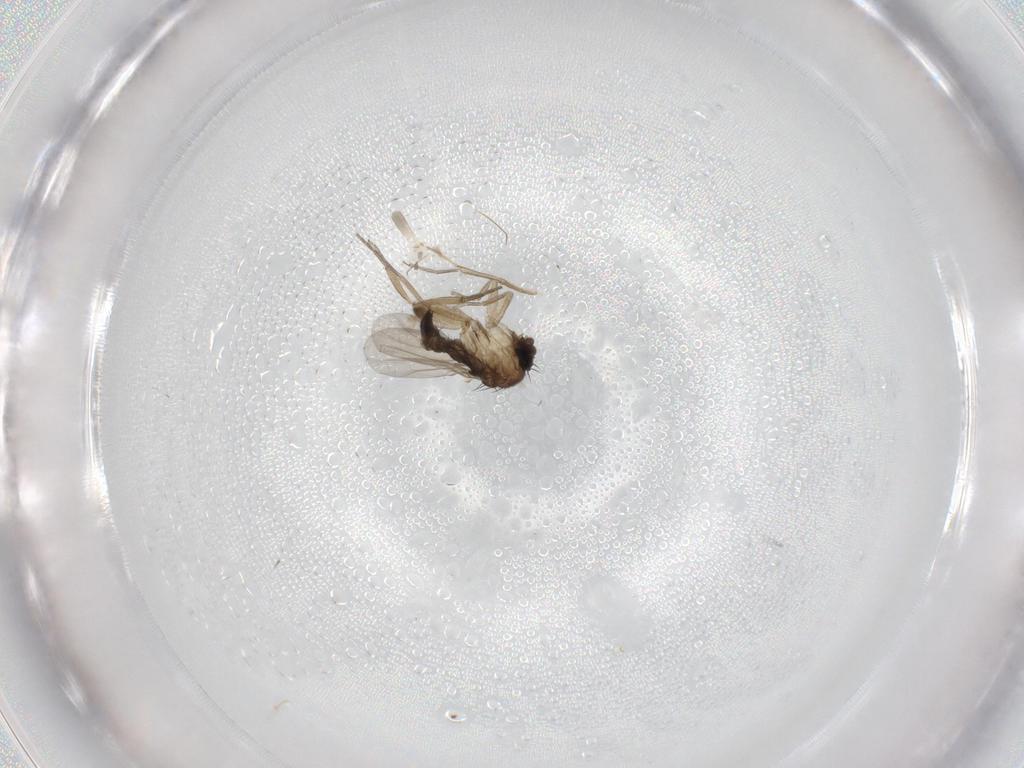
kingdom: Animalia
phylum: Arthropoda
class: Insecta
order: Diptera
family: Phoridae
